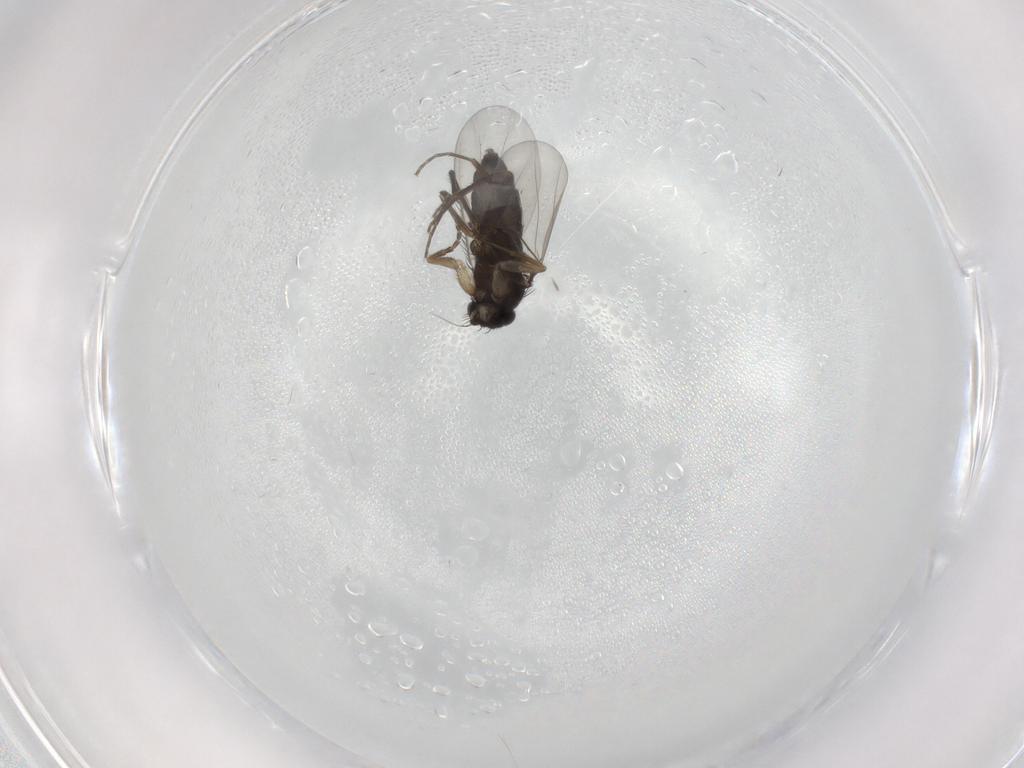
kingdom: Animalia
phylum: Arthropoda
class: Insecta
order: Diptera
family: Phoridae
